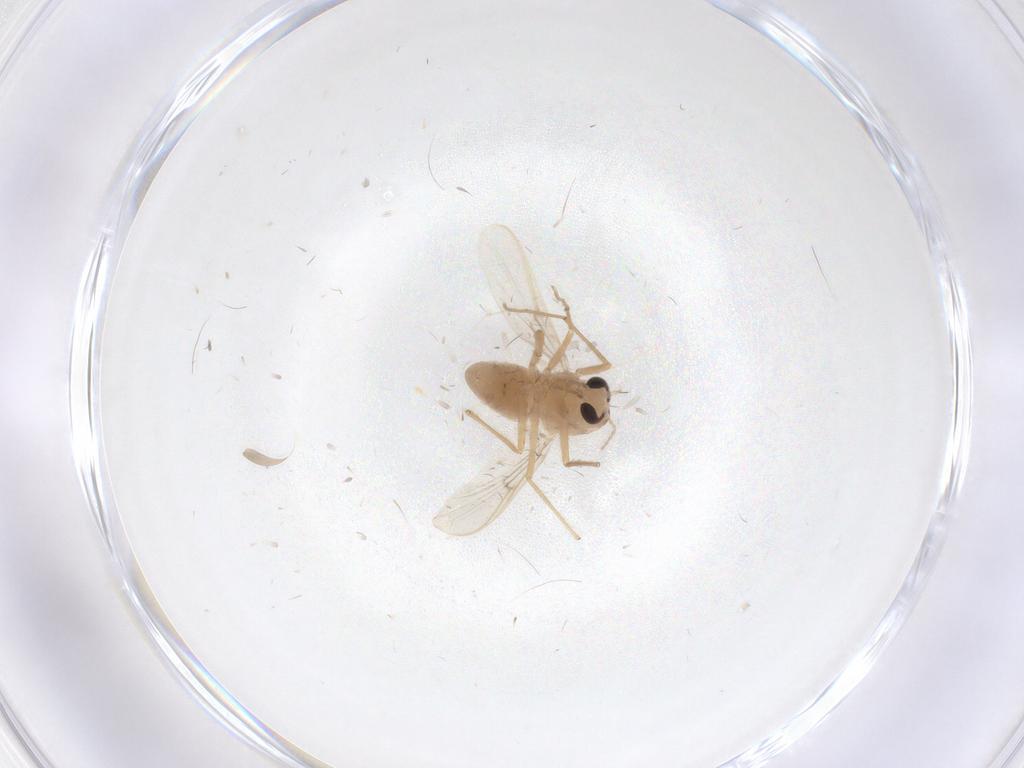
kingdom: Animalia
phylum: Arthropoda
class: Insecta
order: Diptera
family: Chironomidae
